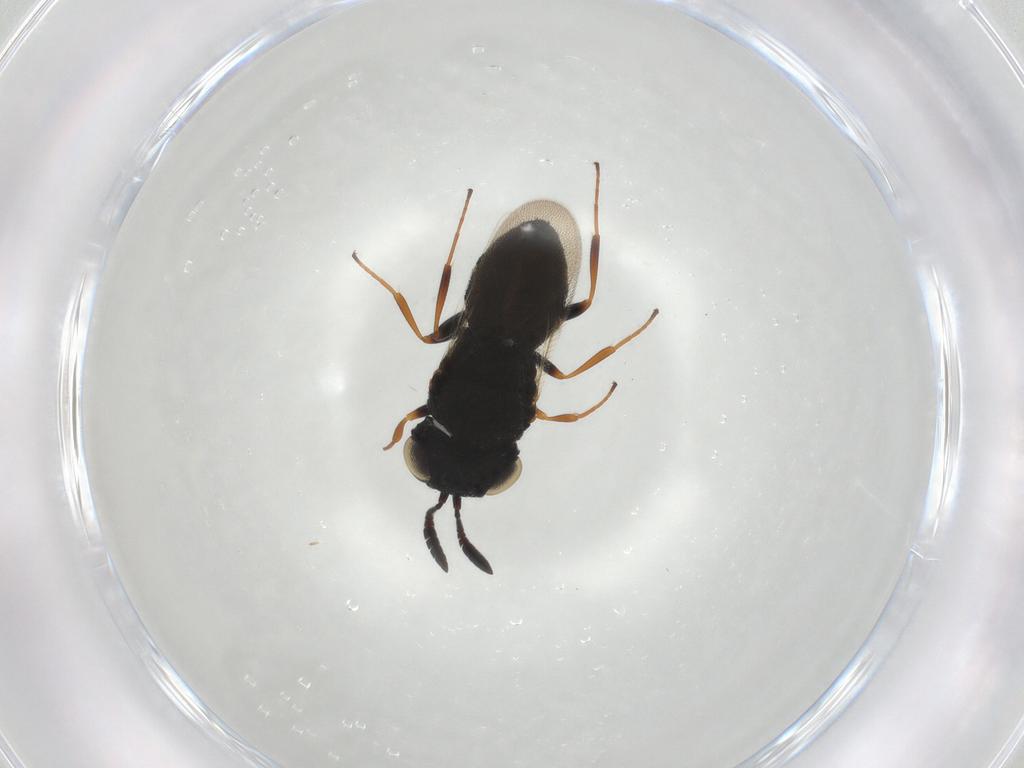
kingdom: Animalia
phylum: Arthropoda
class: Insecta
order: Hymenoptera
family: Scelionidae
